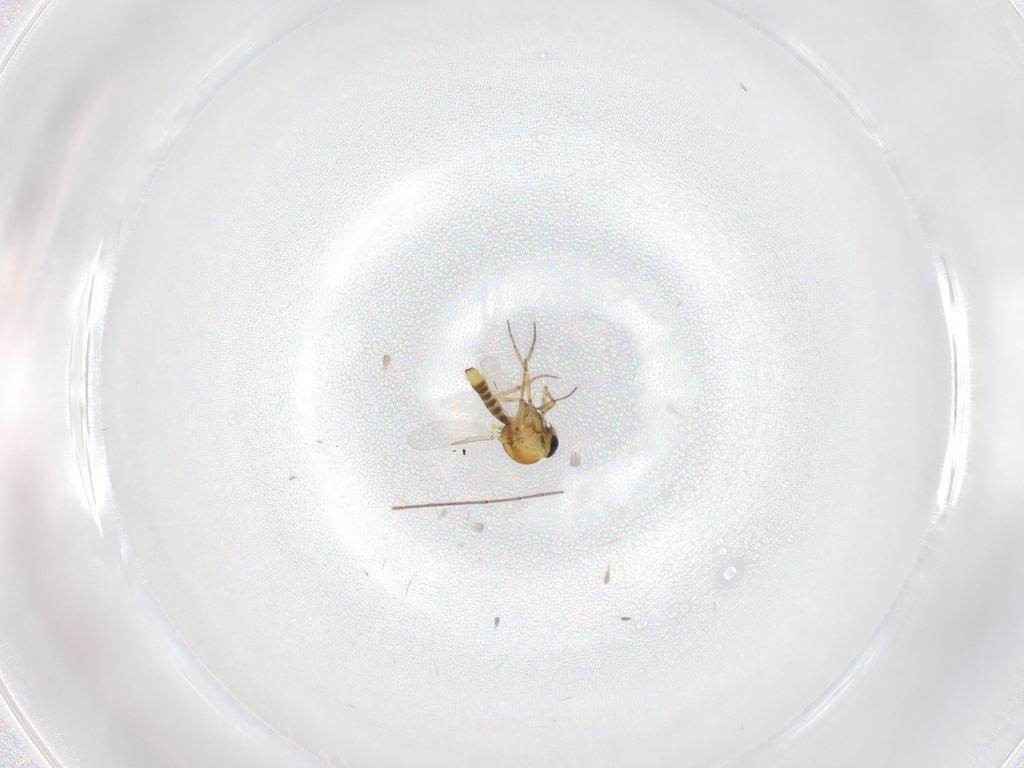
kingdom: Animalia
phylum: Arthropoda
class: Insecta
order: Diptera
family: Ceratopogonidae
